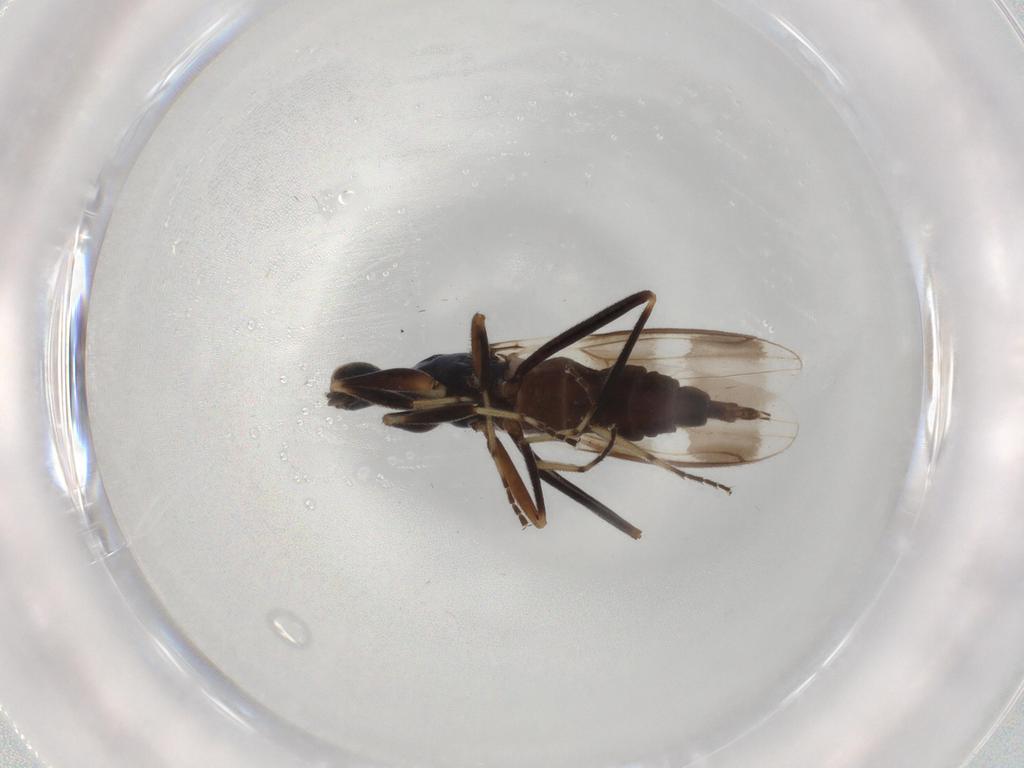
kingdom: Animalia
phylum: Arthropoda
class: Insecta
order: Diptera
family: Hybotidae
